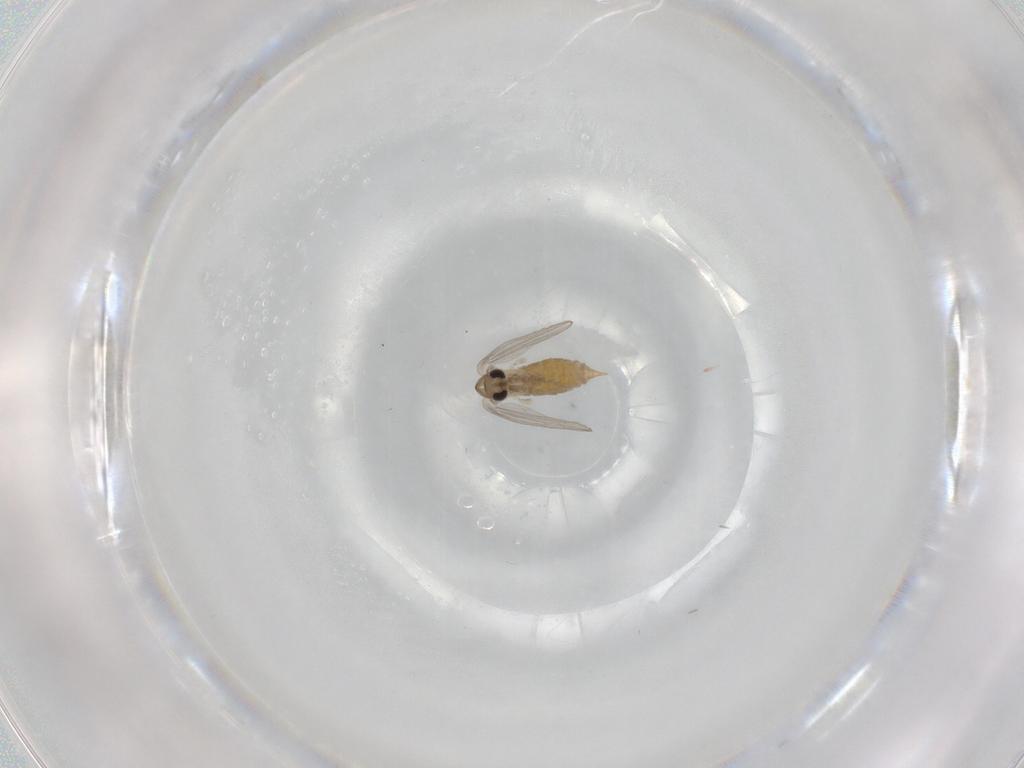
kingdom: Animalia
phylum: Arthropoda
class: Insecta
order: Diptera
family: Psychodidae
